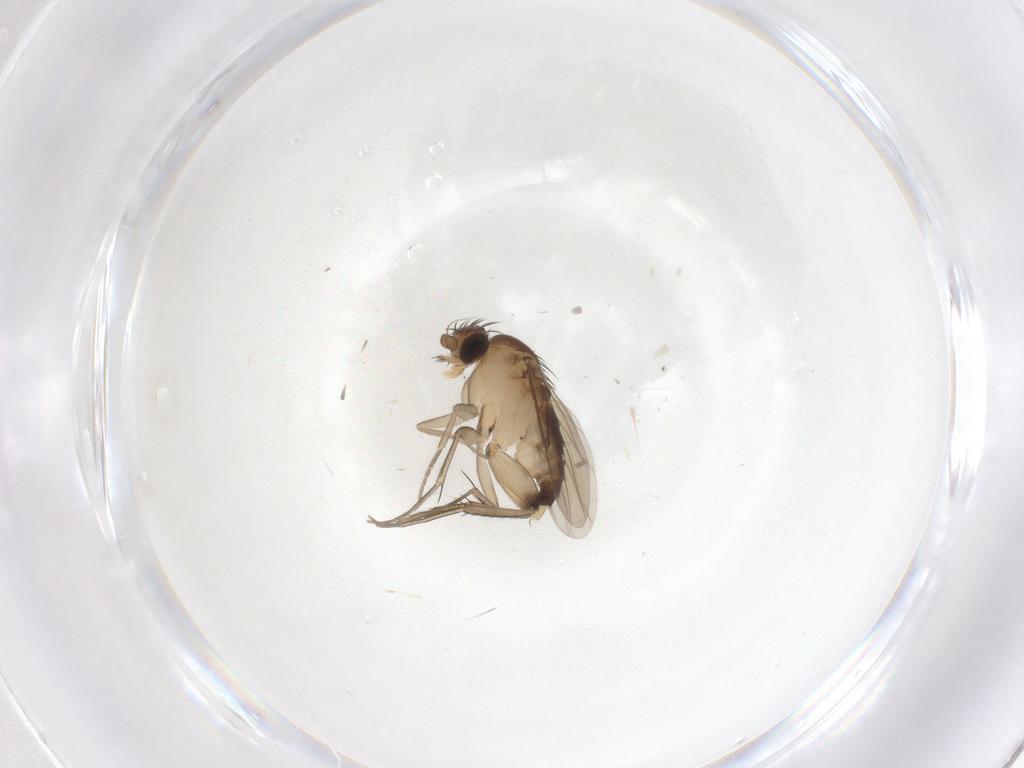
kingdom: Animalia
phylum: Arthropoda
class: Insecta
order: Diptera
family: Phoridae
